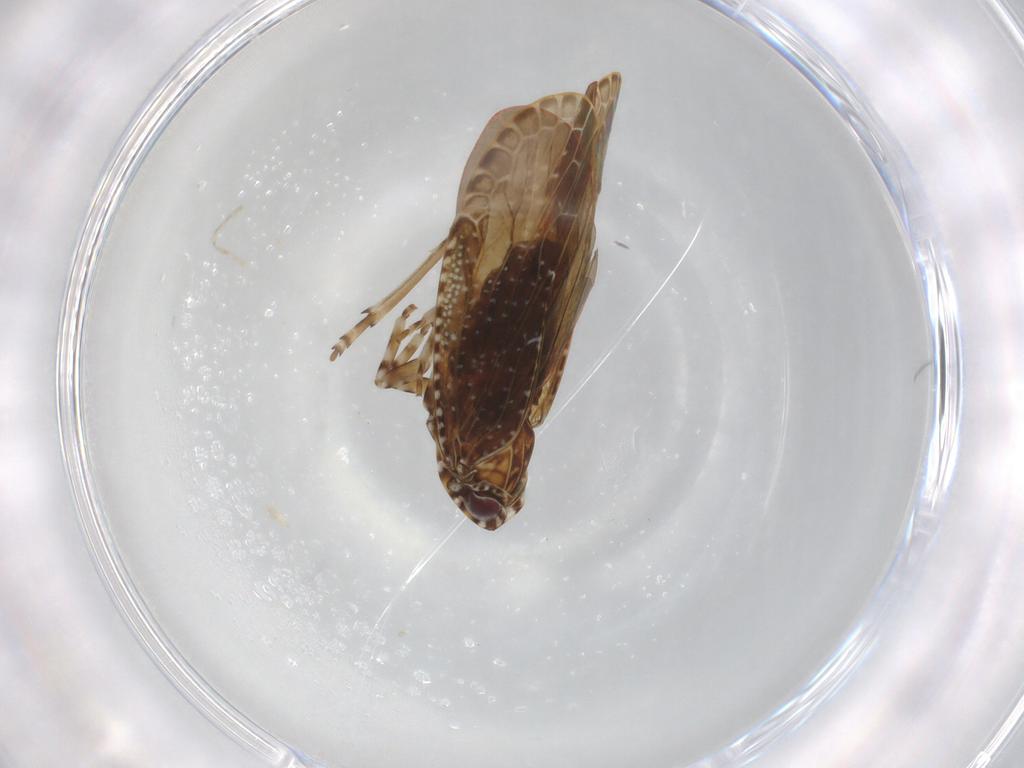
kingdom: Animalia
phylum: Arthropoda
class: Insecta
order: Hemiptera
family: Cicadellidae
